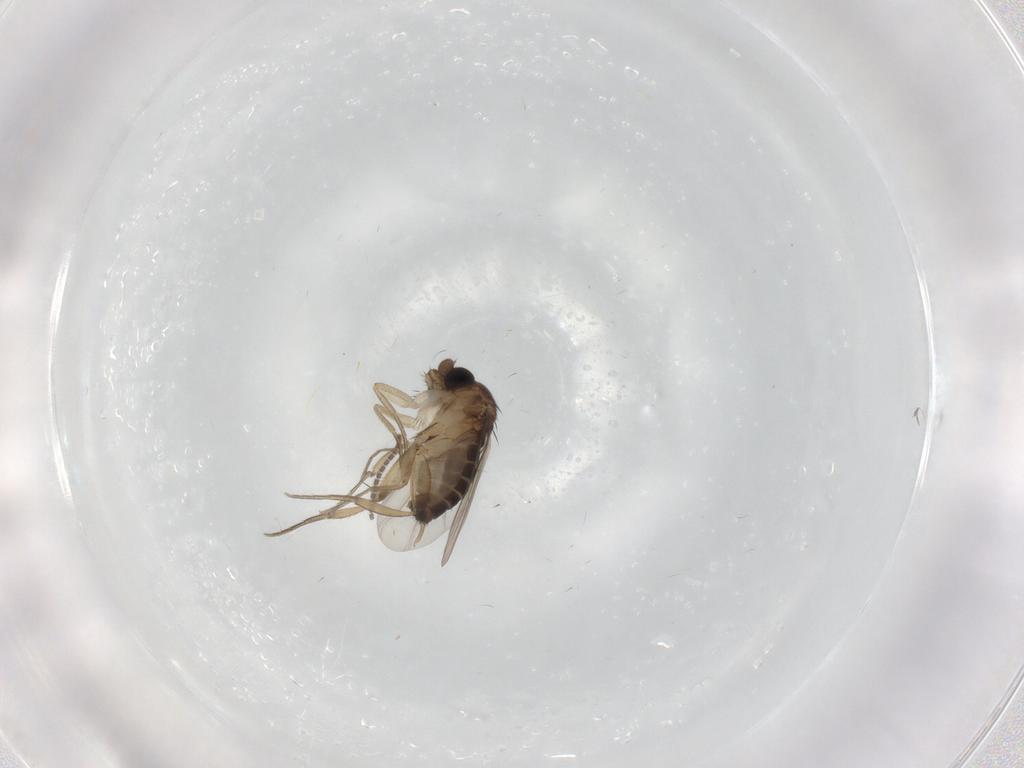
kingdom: Animalia
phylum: Arthropoda
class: Insecta
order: Diptera
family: Phoridae
